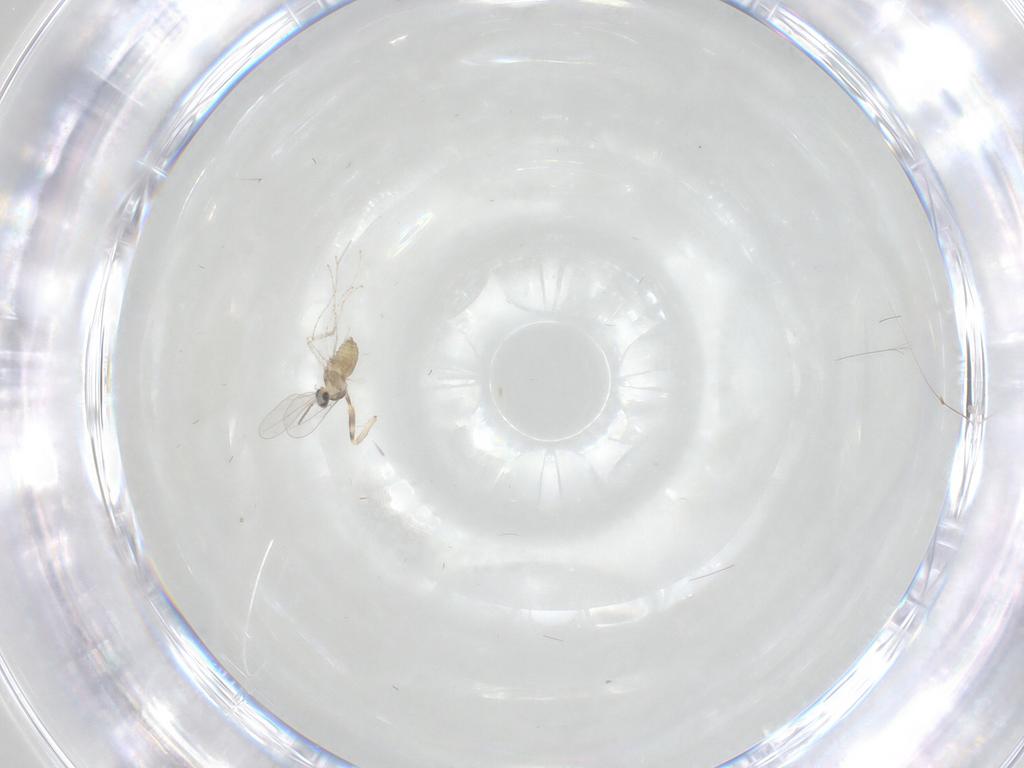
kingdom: Animalia
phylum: Arthropoda
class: Insecta
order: Diptera
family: Cecidomyiidae
